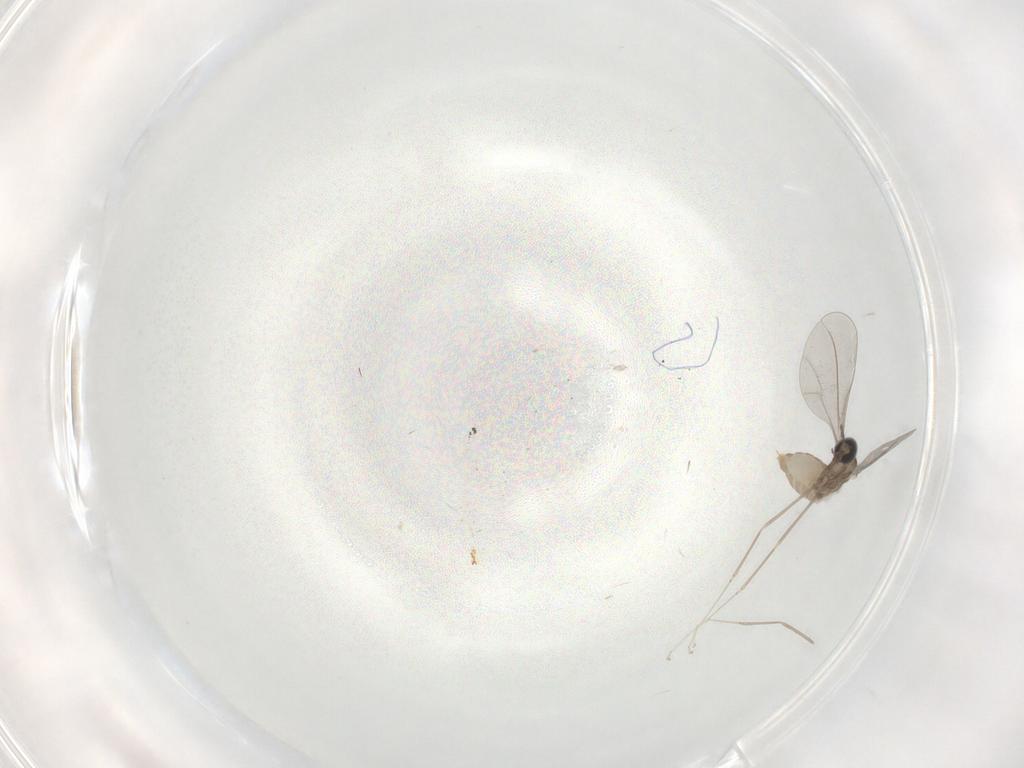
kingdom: Animalia
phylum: Arthropoda
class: Insecta
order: Diptera
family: Cecidomyiidae
